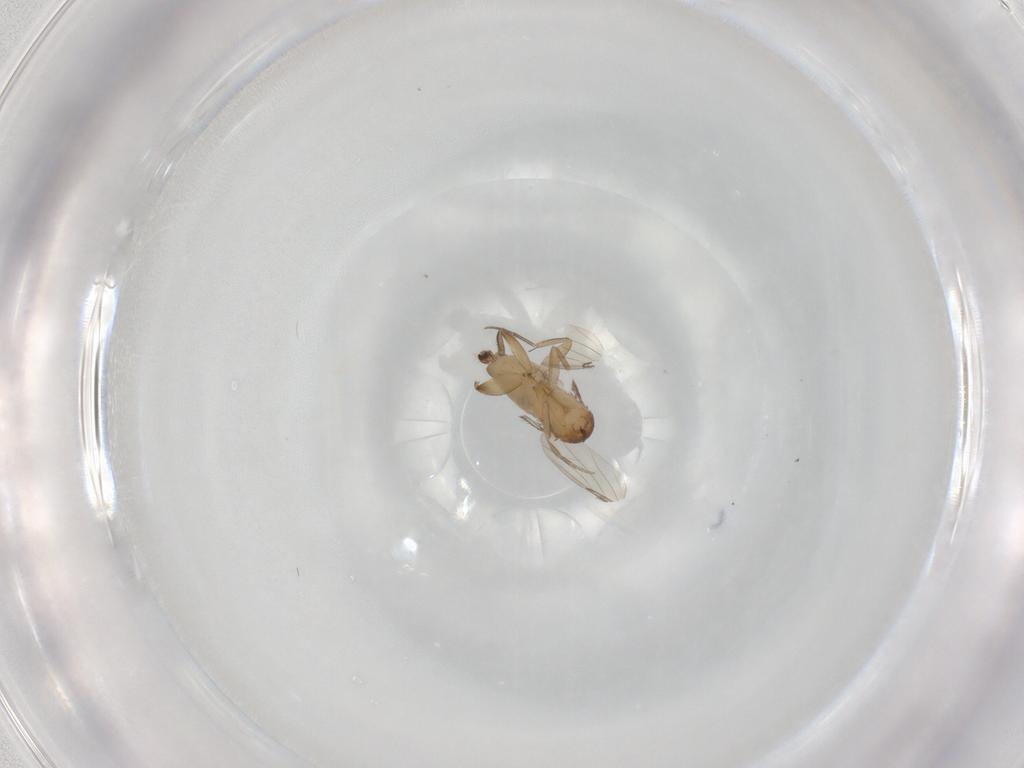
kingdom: Animalia
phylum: Arthropoda
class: Insecta
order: Diptera
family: Phoridae
